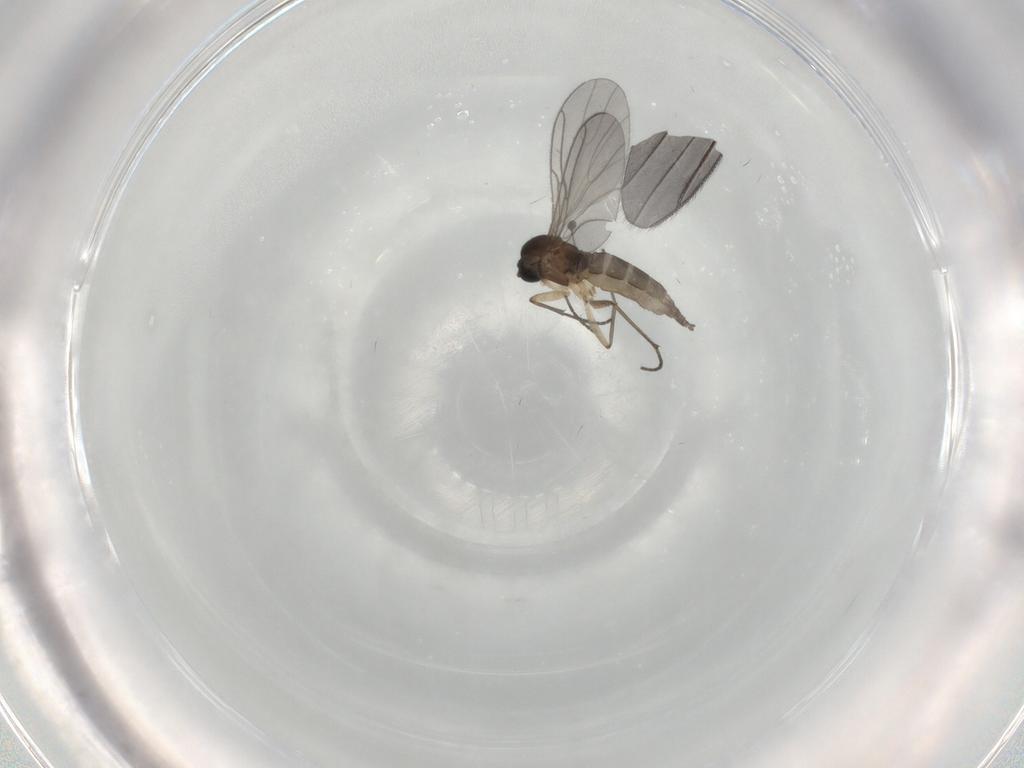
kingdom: Animalia
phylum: Arthropoda
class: Insecta
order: Diptera
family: Sciaridae
